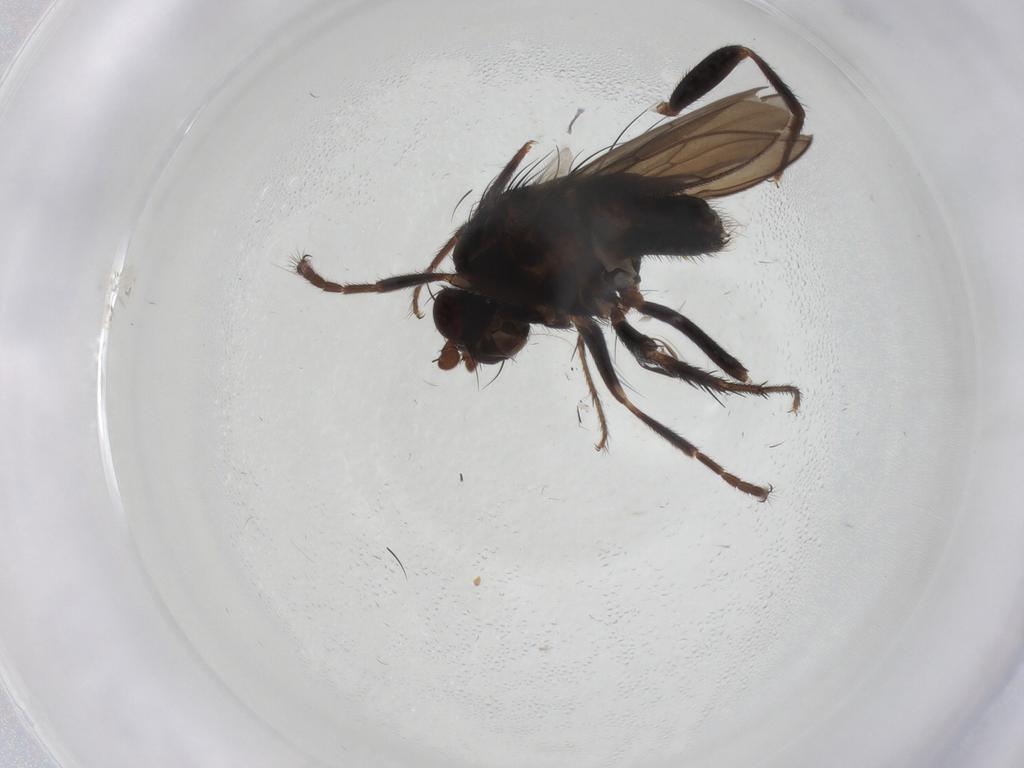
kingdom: Animalia
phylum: Arthropoda
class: Insecta
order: Diptera
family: Sphaeroceridae
